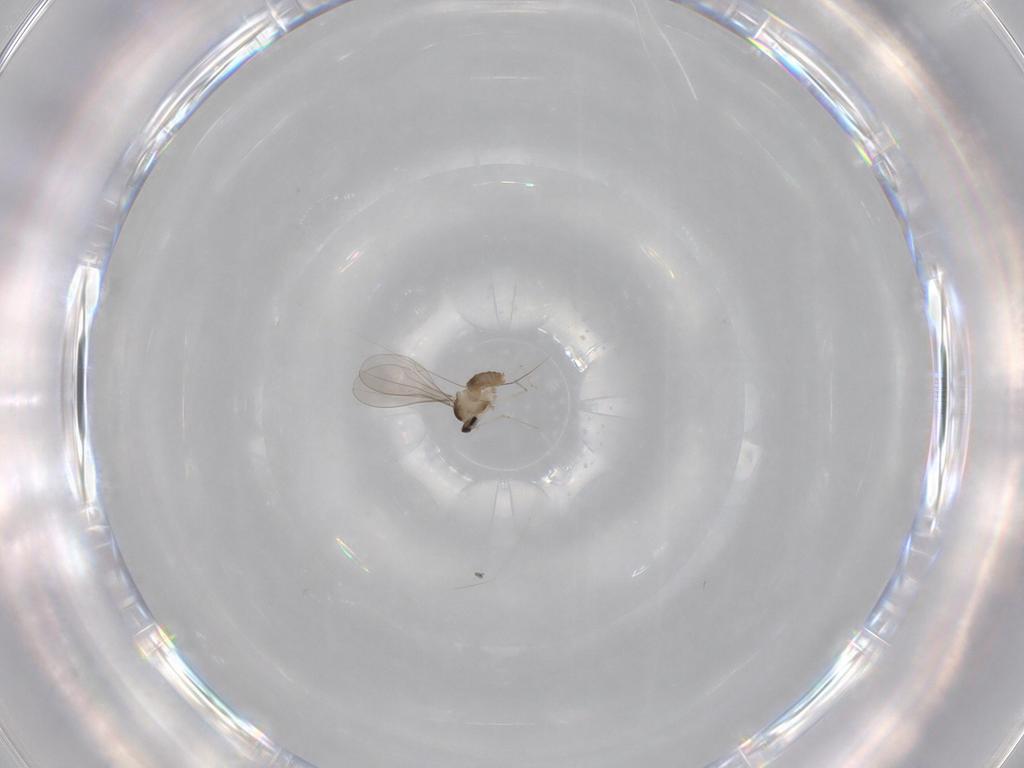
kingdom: Animalia
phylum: Arthropoda
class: Insecta
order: Diptera
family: Cecidomyiidae
